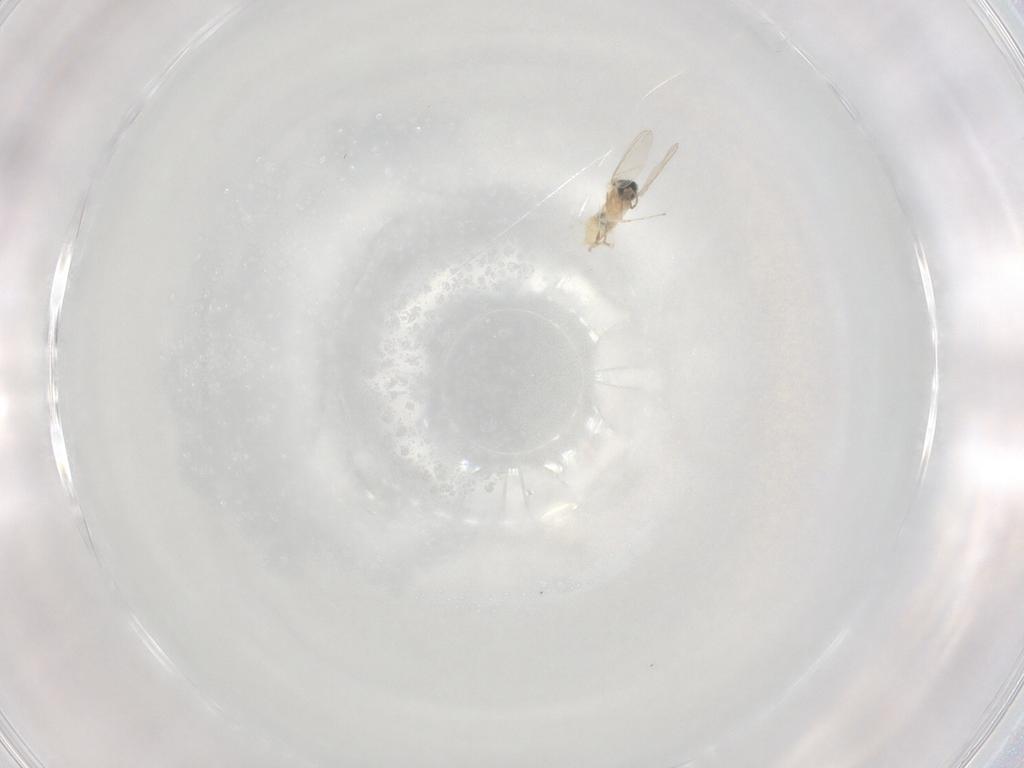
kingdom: Animalia
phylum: Arthropoda
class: Insecta
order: Diptera
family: Cecidomyiidae
